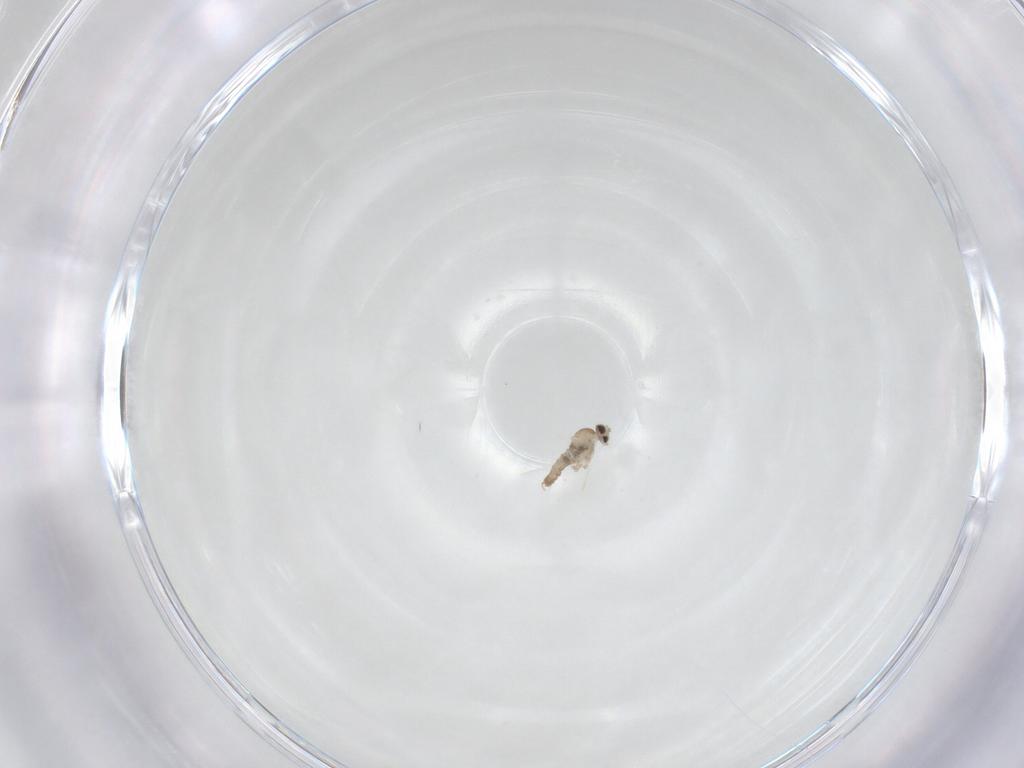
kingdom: Animalia
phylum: Arthropoda
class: Insecta
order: Diptera
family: Cecidomyiidae
